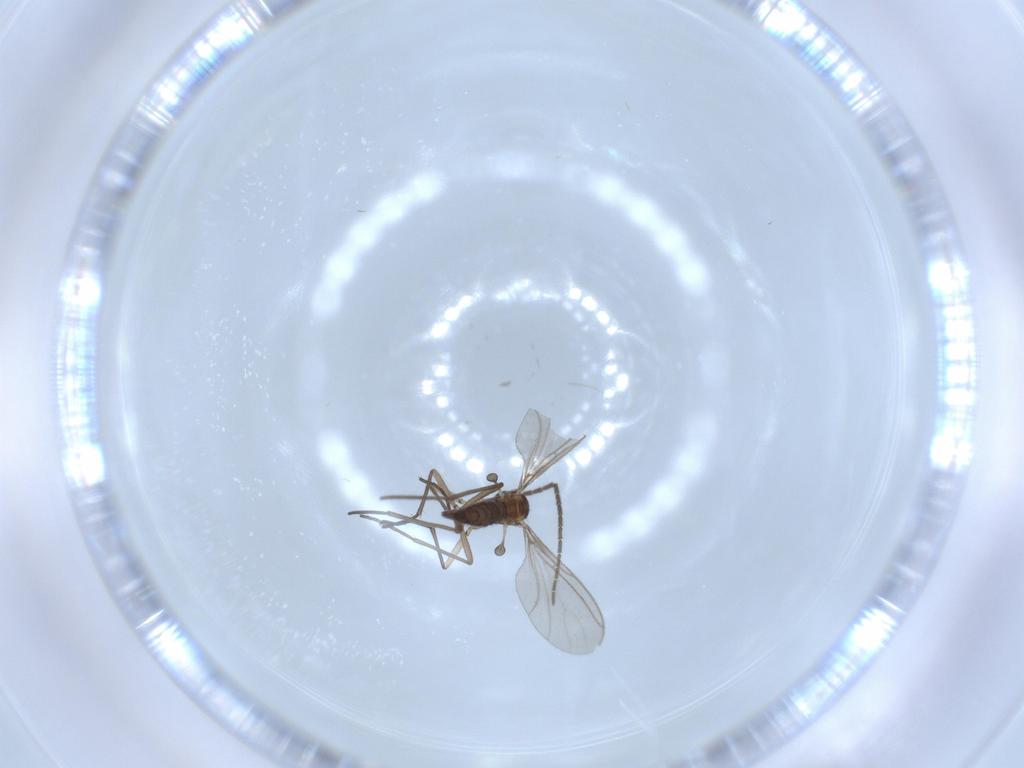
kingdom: Animalia
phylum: Arthropoda
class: Insecta
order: Diptera
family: Cecidomyiidae
